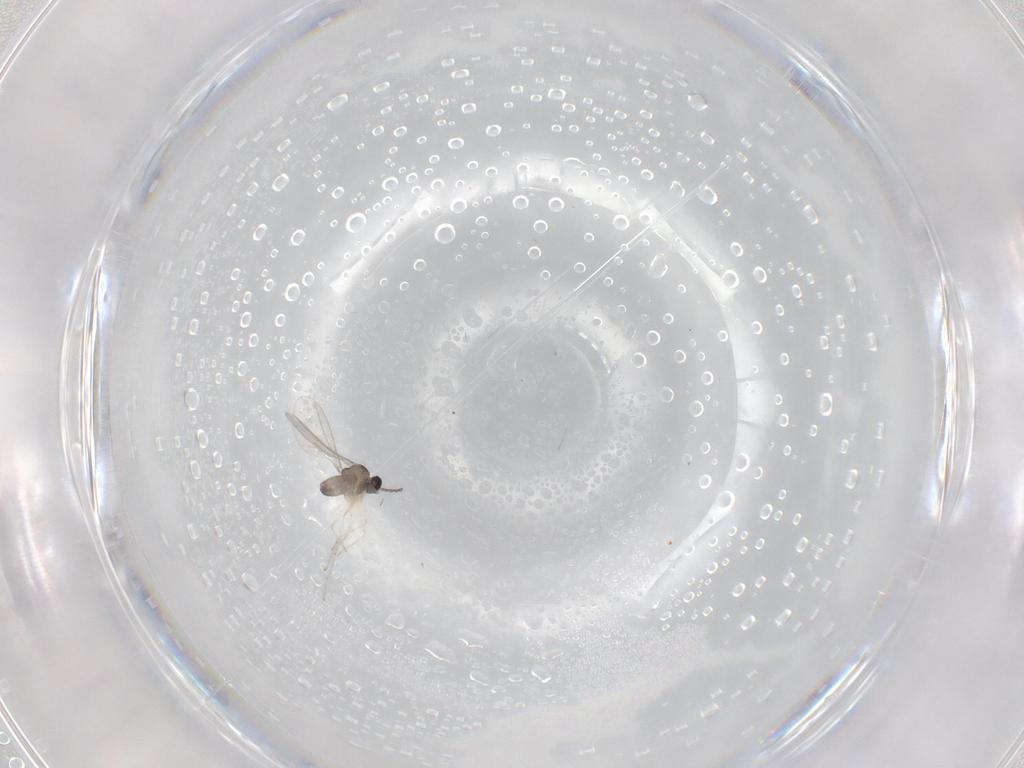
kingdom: Animalia
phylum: Arthropoda
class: Insecta
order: Diptera
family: Cecidomyiidae
